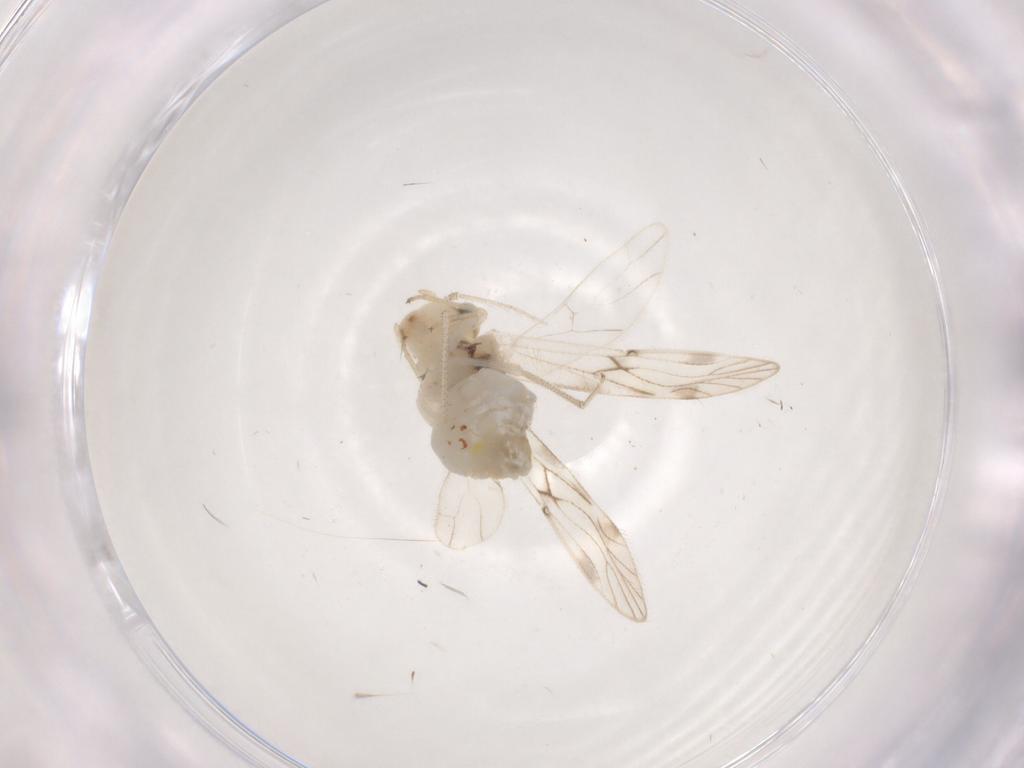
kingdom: Animalia
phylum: Arthropoda
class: Insecta
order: Psocodea
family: Caeciliusidae
